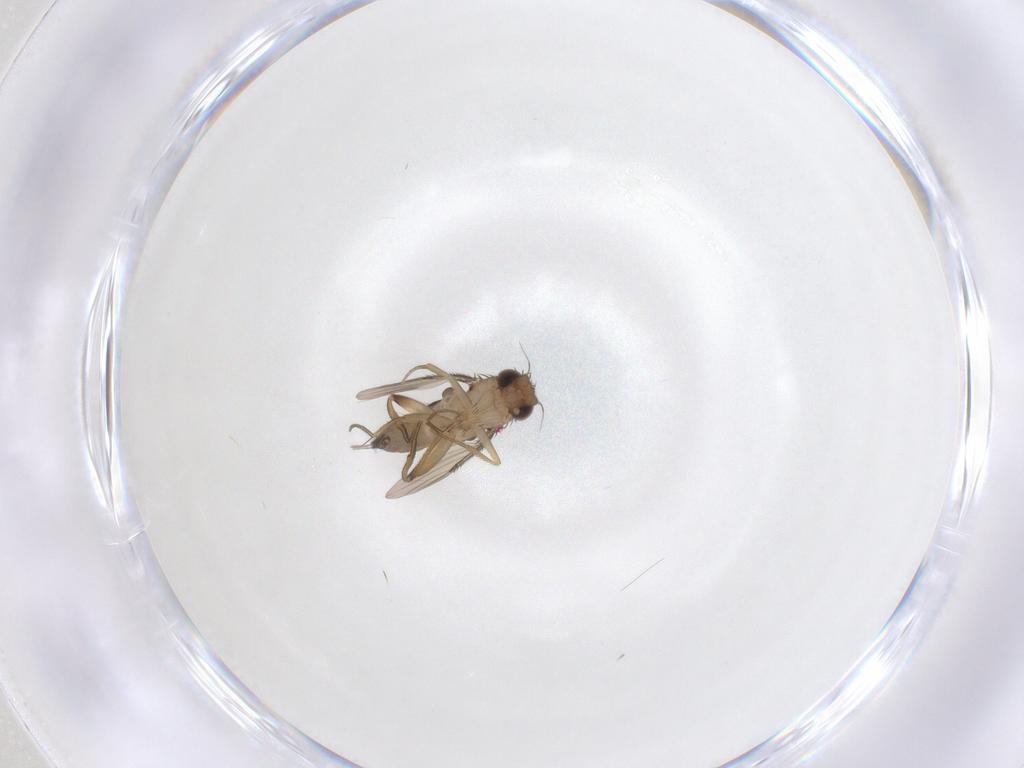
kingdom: Animalia
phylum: Arthropoda
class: Insecta
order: Diptera
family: Phoridae
